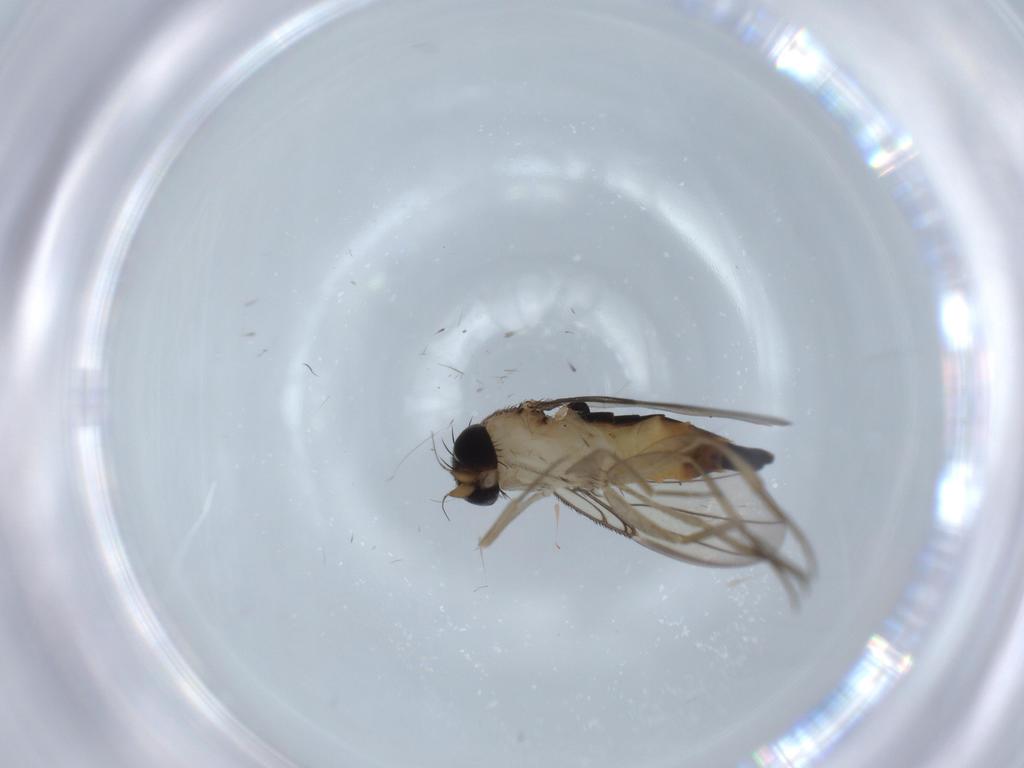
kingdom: Animalia
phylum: Arthropoda
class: Insecta
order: Diptera
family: Phoridae
